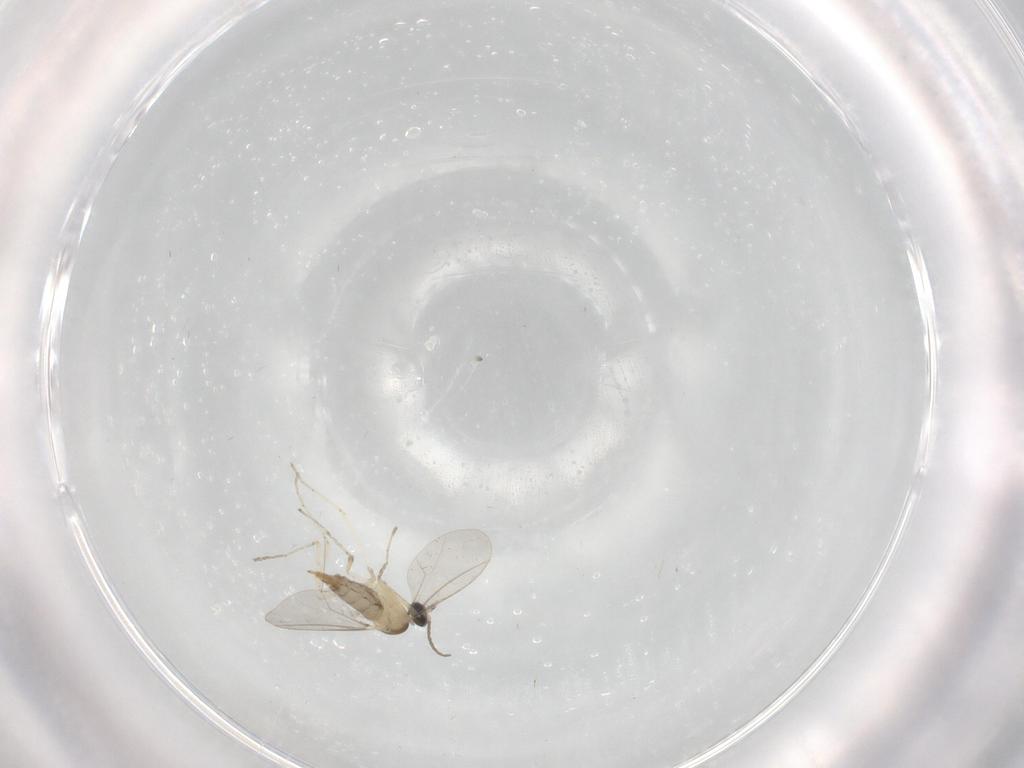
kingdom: Animalia
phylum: Arthropoda
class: Insecta
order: Diptera
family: Cecidomyiidae
